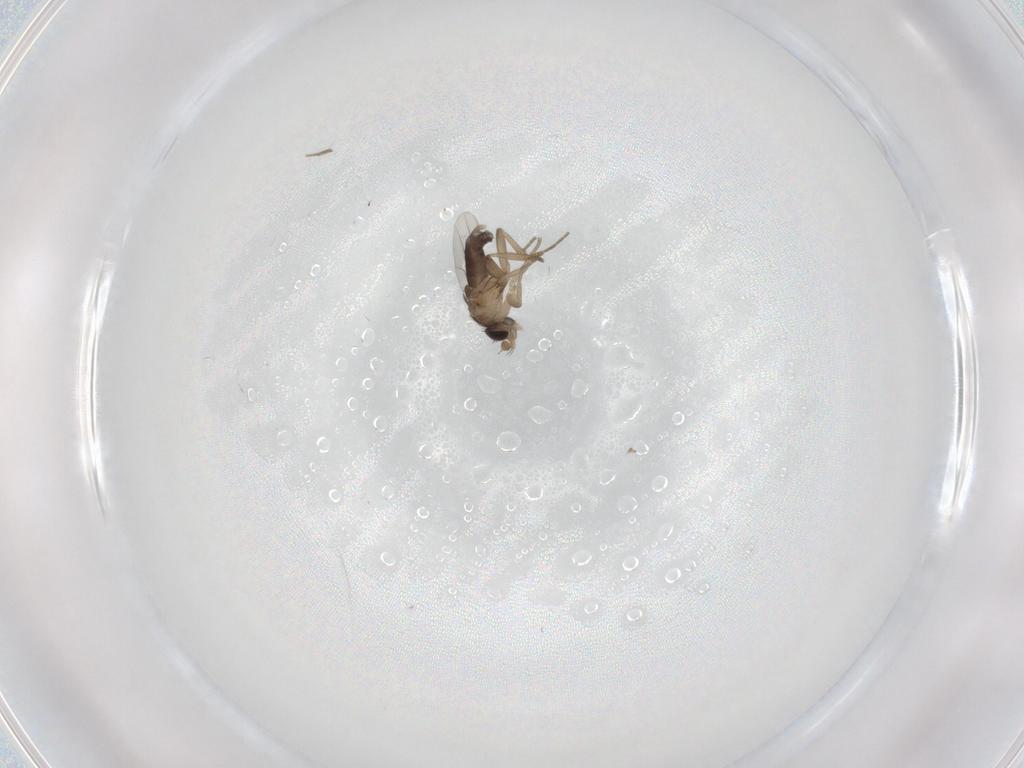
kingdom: Animalia
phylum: Arthropoda
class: Insecta
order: Diptera
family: Phoridae
